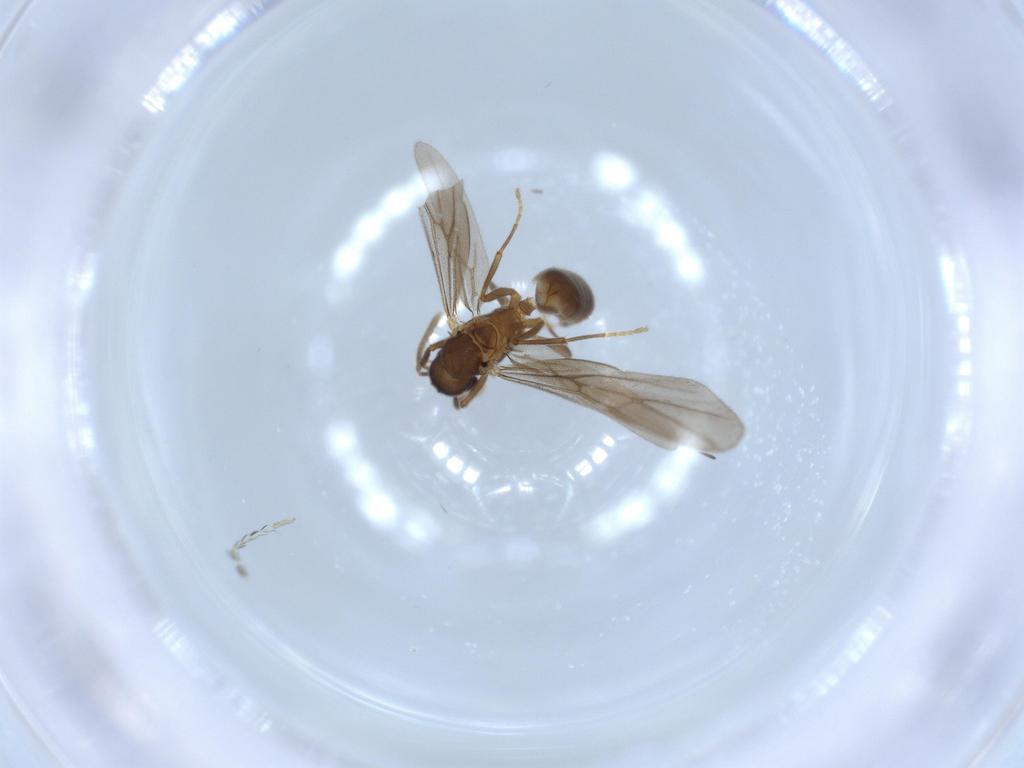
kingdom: Animalia
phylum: Arthropoda
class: Insecta
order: Hymenoptera
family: Formicidae
